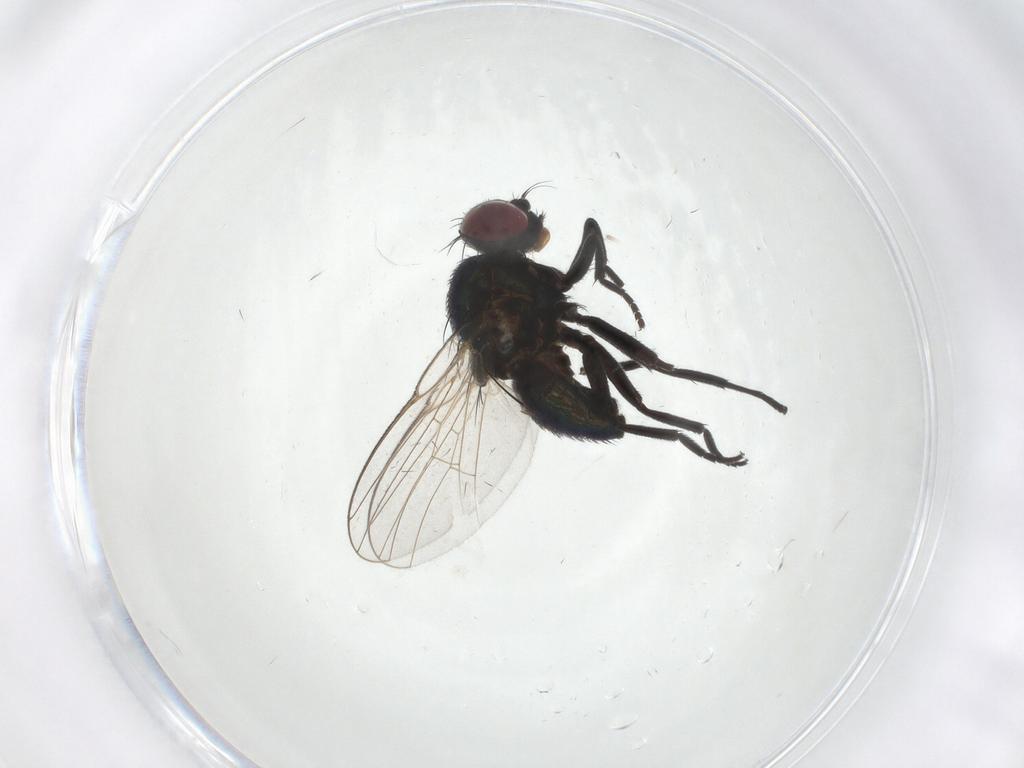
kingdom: Animalia
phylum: Arthropoda
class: Insecta
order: Diptera
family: Agromyzidae
